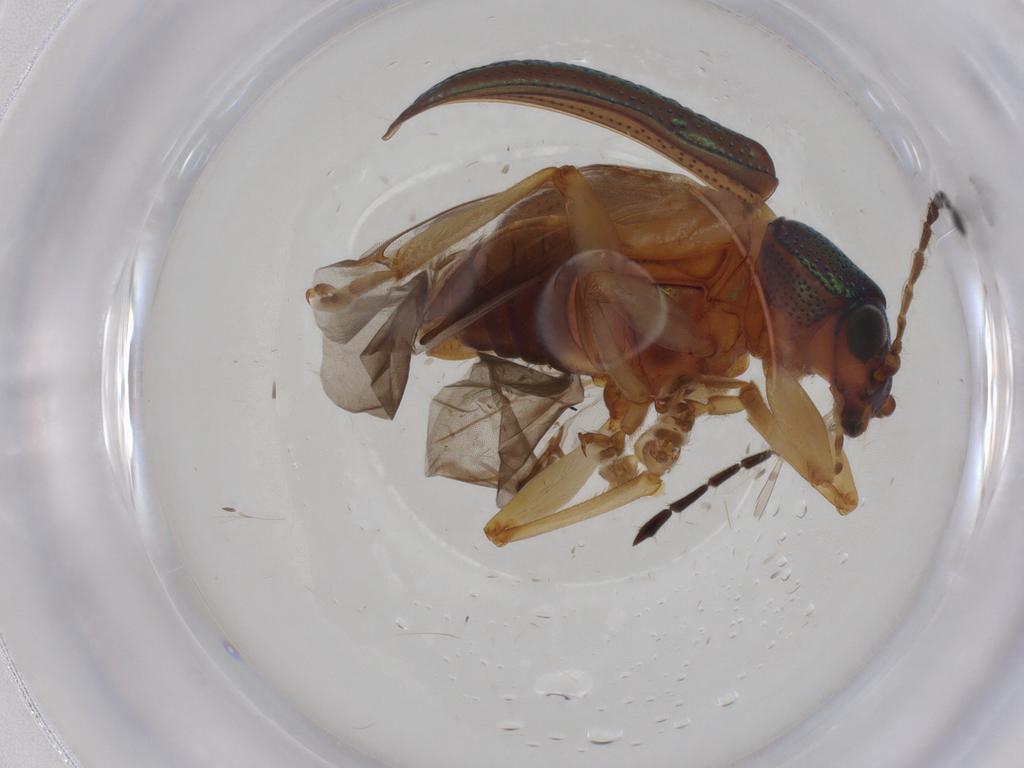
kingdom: Animalia
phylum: Arthropoda
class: Insecta
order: Coleoptera
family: Chrysomelidae
